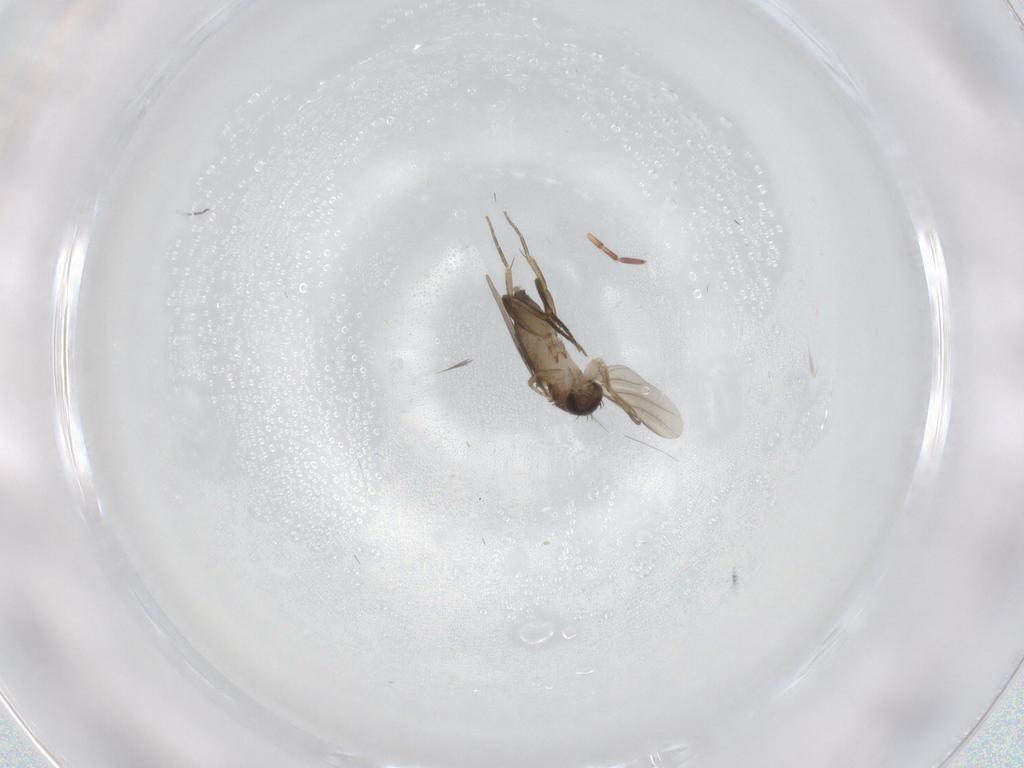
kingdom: Animalia
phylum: Arthropoda
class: Insecta
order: Diptera
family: Phoridae
